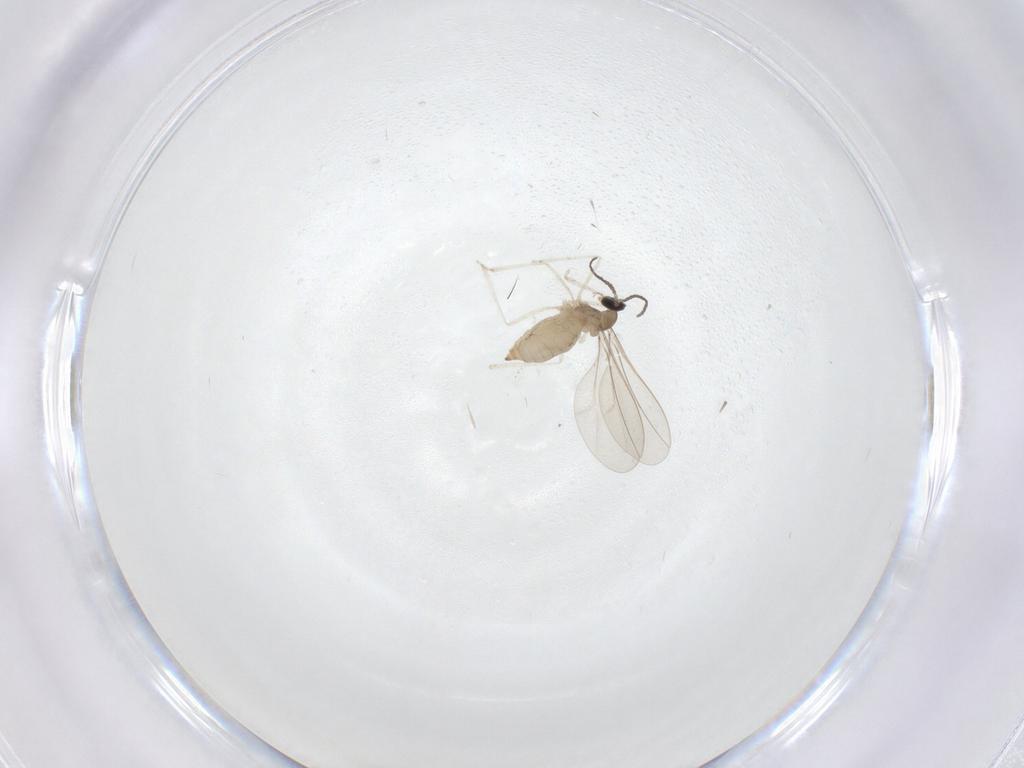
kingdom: Animalia
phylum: Arthropoda
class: Insecta
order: Diptera
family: Cecidomyiidae
